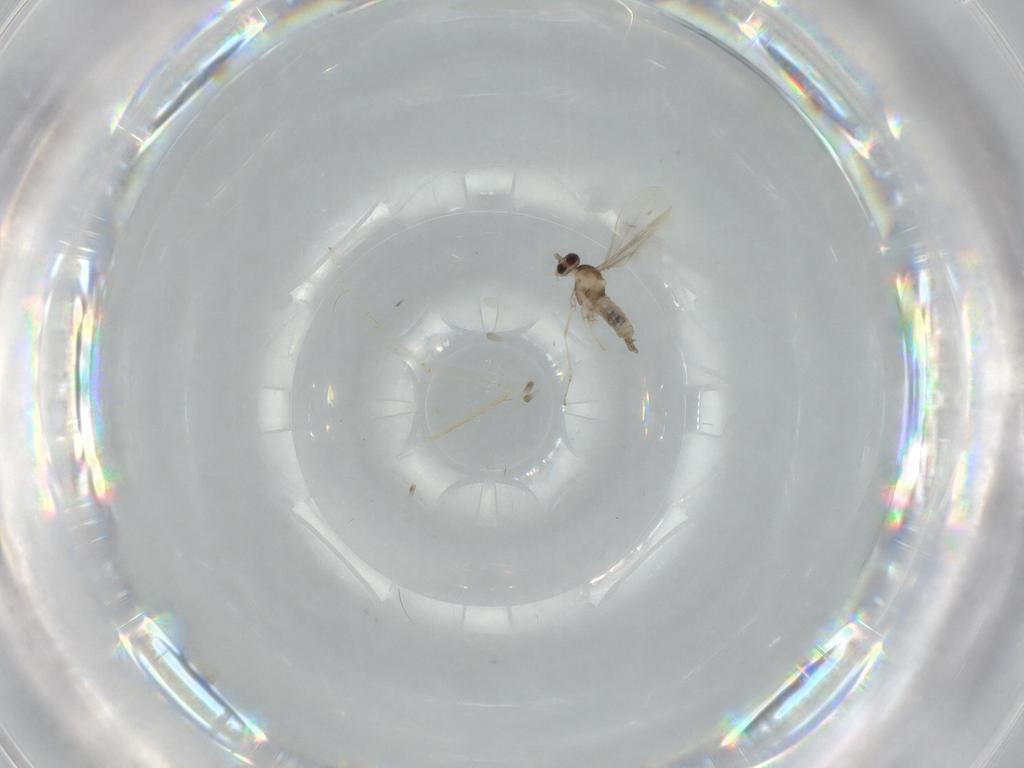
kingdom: Animalia
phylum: Arthropoda
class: Insecta
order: Diptera
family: Cecidomyiidae
